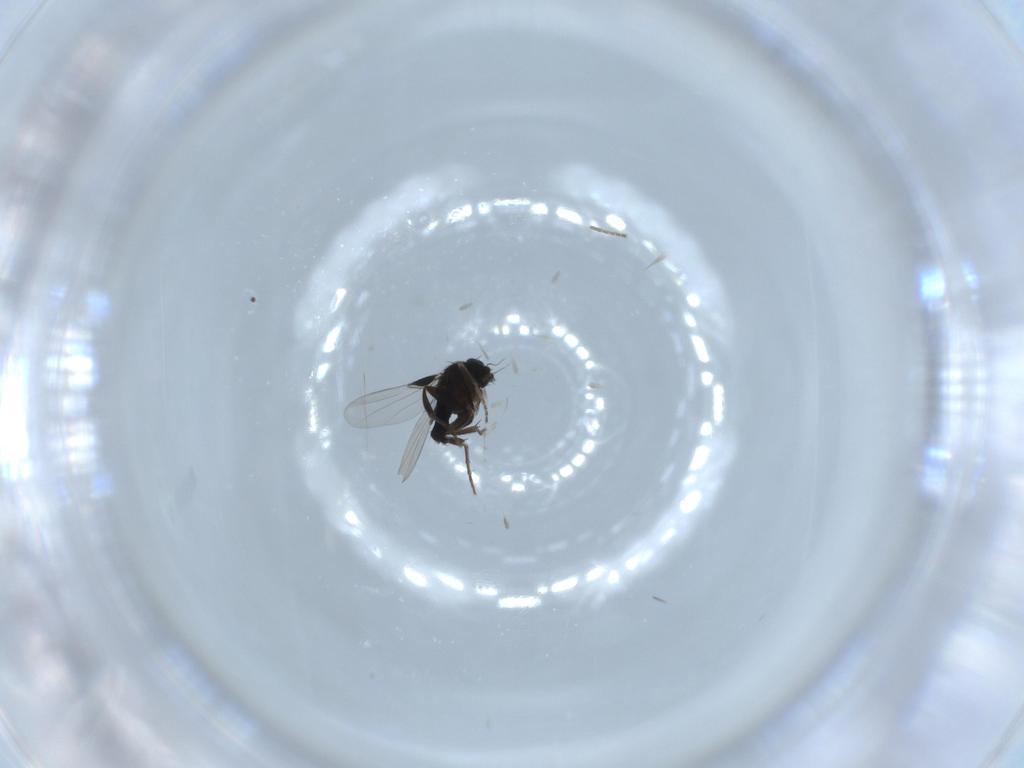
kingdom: Animalia
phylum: Arthropoda
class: Insecta
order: Diptera
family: Phoridae
